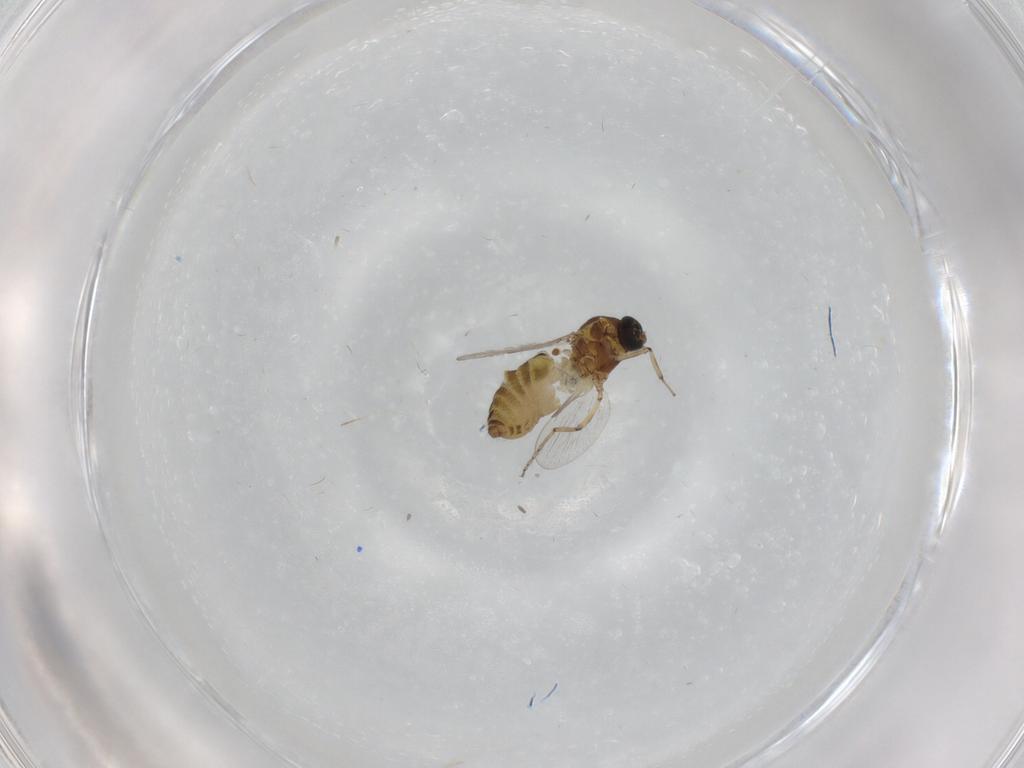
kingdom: Animalia
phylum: Arthropoda
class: Insecta
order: Diptera
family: Ceratopogonidae
